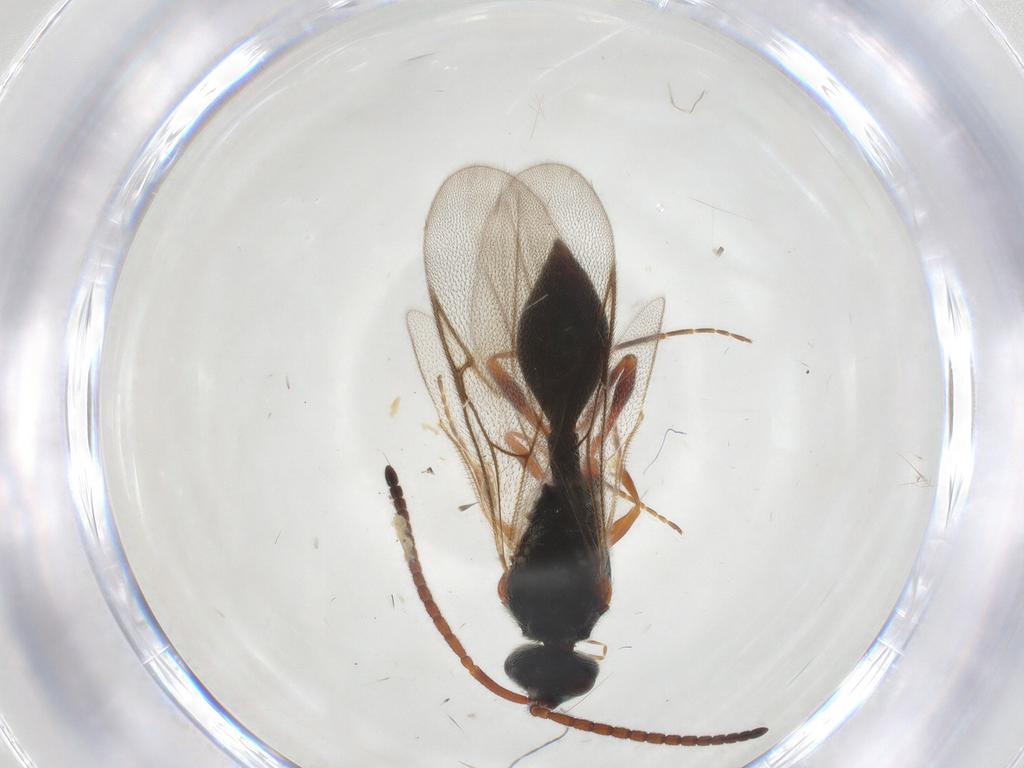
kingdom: Animalia
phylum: Arthropoda
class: Insecta
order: Hymenoptera
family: Diapriidae
